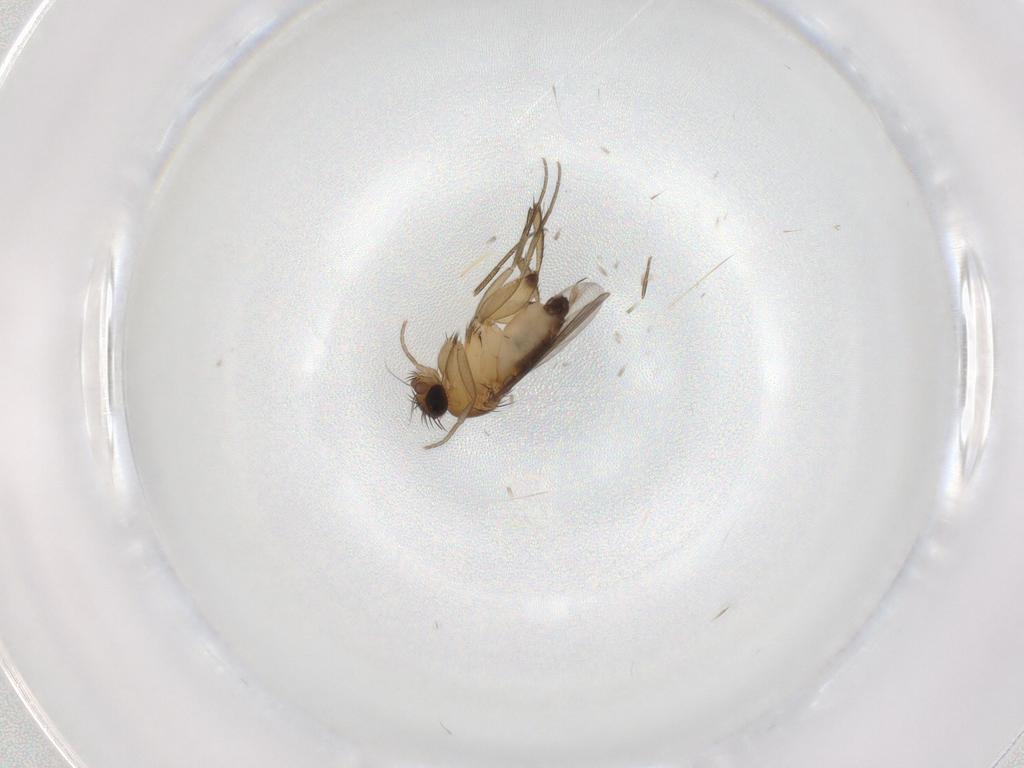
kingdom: Animalia
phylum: Arthropoda
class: Insecta
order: Diptera
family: Phoridae
